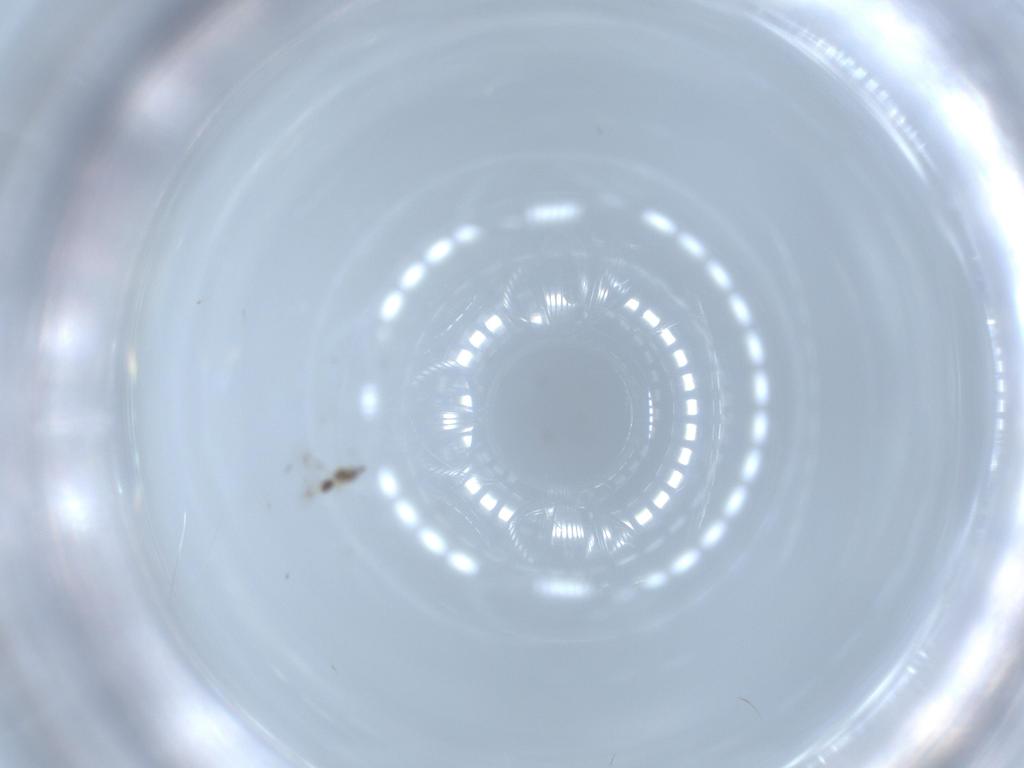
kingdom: Animalia
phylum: Arthropoda
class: Insecta
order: Hymenoptera
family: Mymarommatidae
